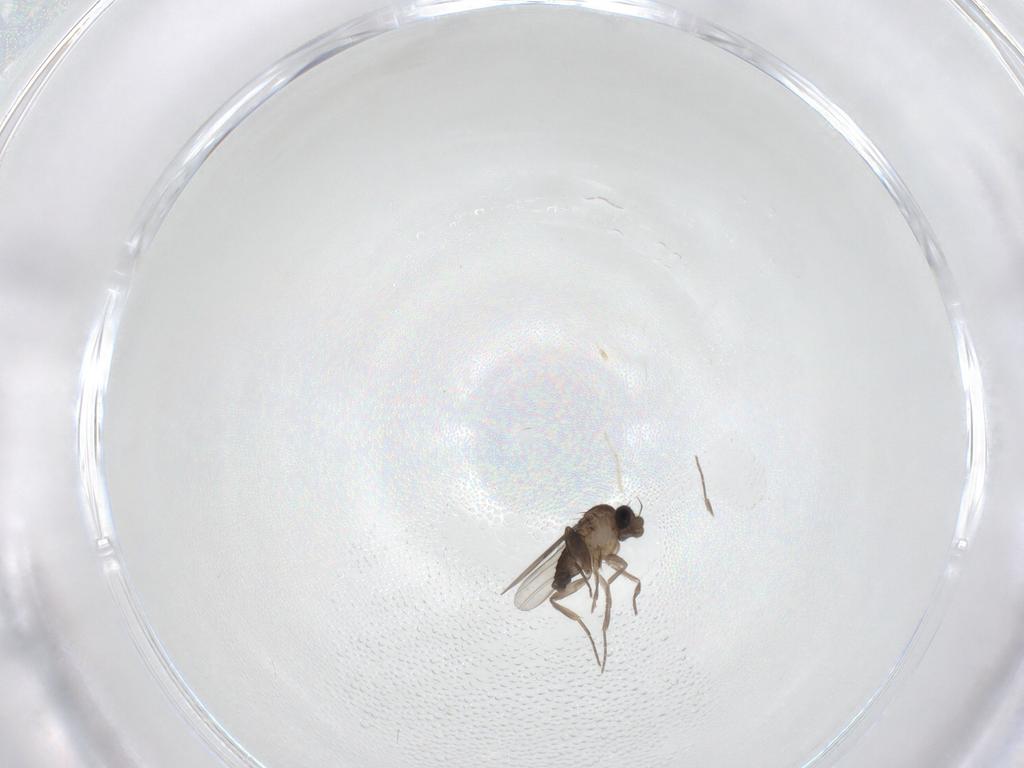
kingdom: Animalia
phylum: Arthropoda
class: Insecta
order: Diptera
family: Phoridae
